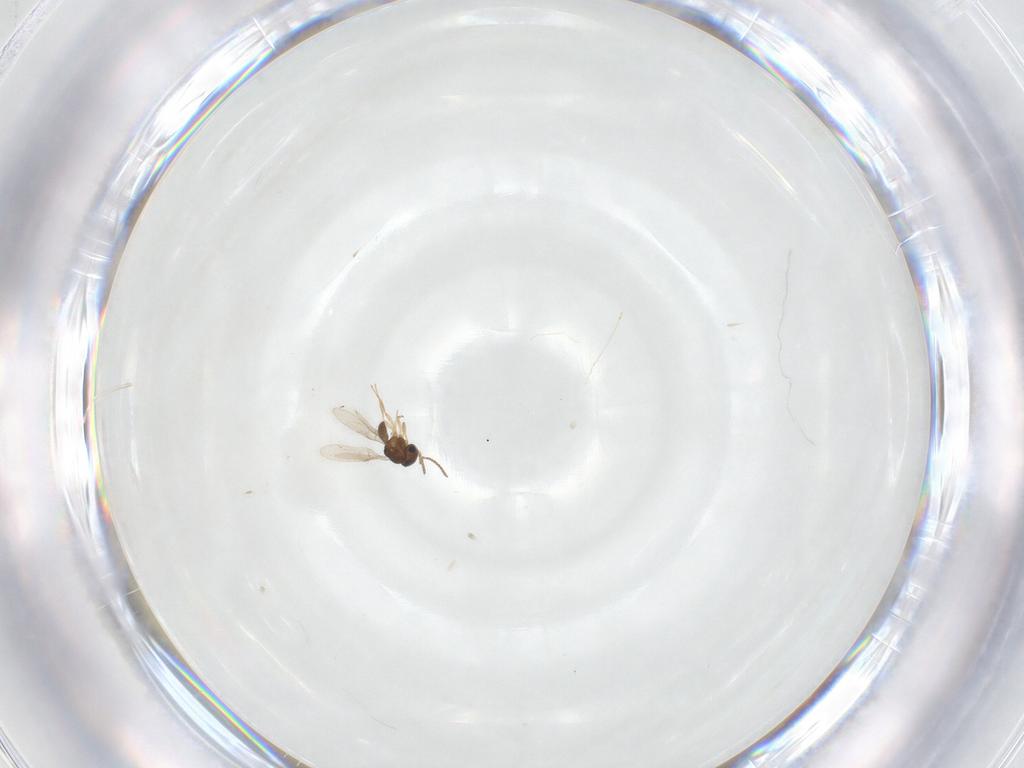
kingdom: Animalia
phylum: Arthropoda
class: Insecta
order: Hymenoptera
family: Scelionidae
